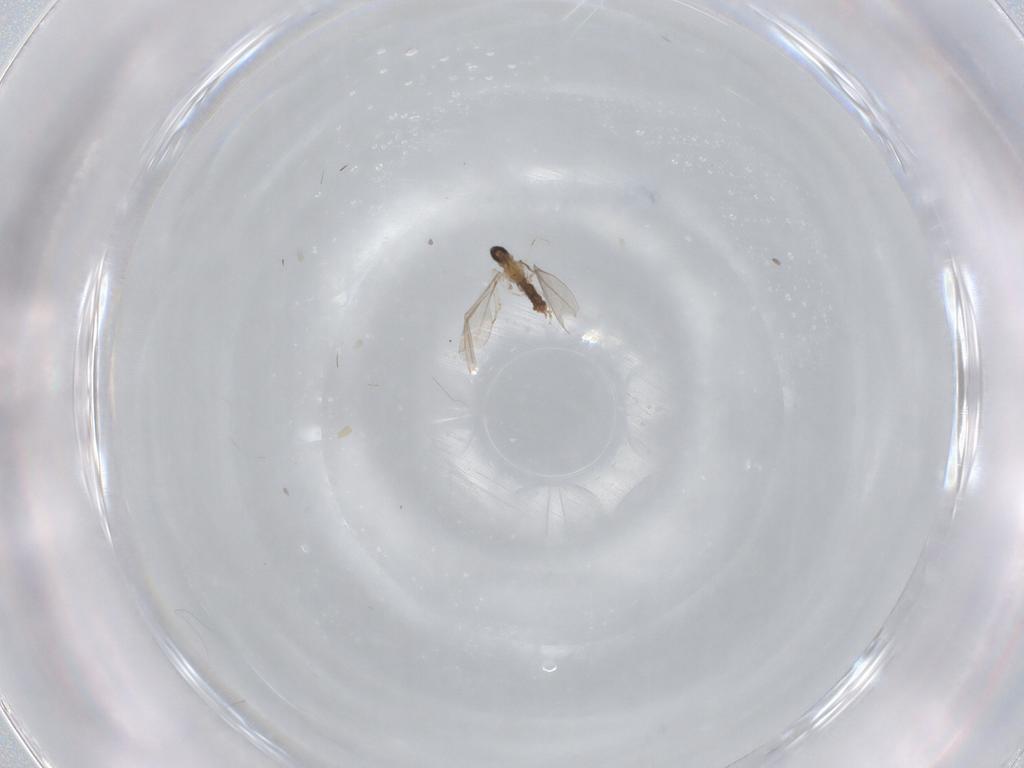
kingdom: Animalia
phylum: Arthropoda
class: Insecta
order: Diptera
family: Cecidomyiidae
